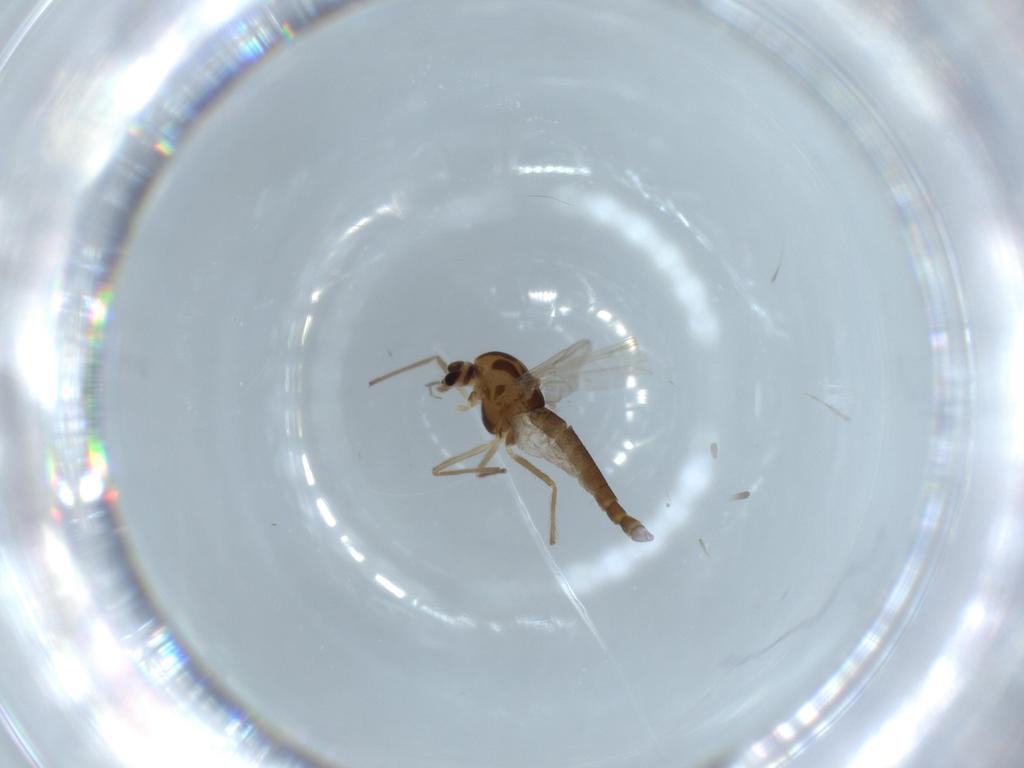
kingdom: Animalia
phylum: Arthropoda
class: Insecta
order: Diptera
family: Chironomidae
